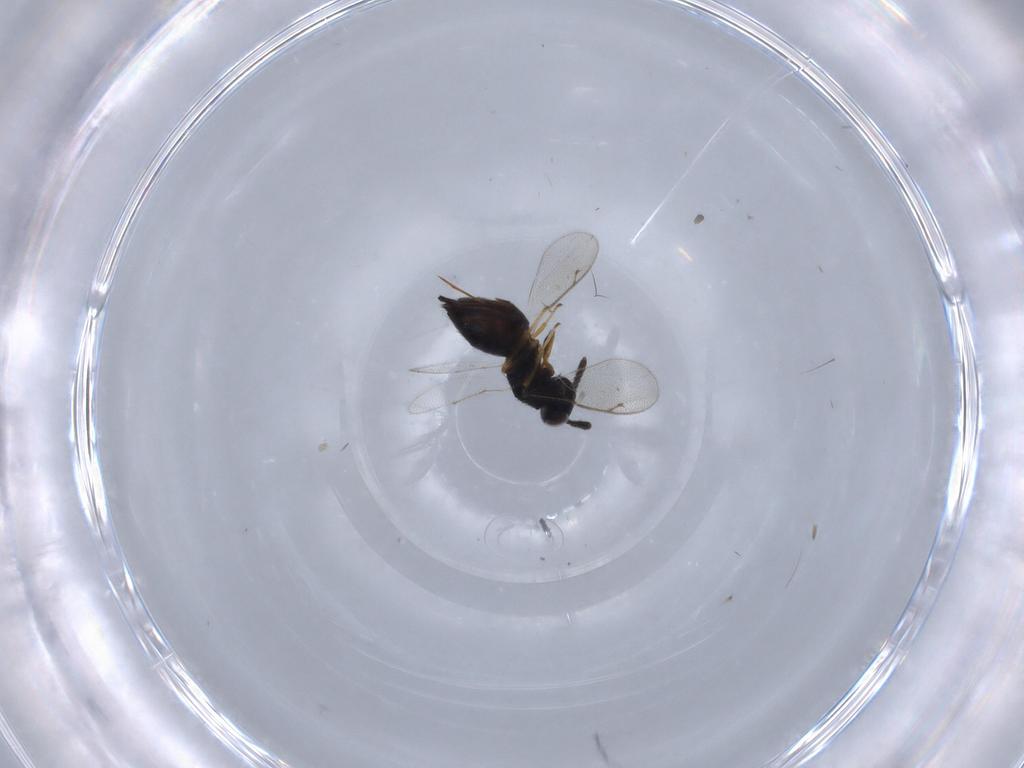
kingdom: Animalia
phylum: Arthropoda
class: Insecta
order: Hymenoptera
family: Pteromalidae
